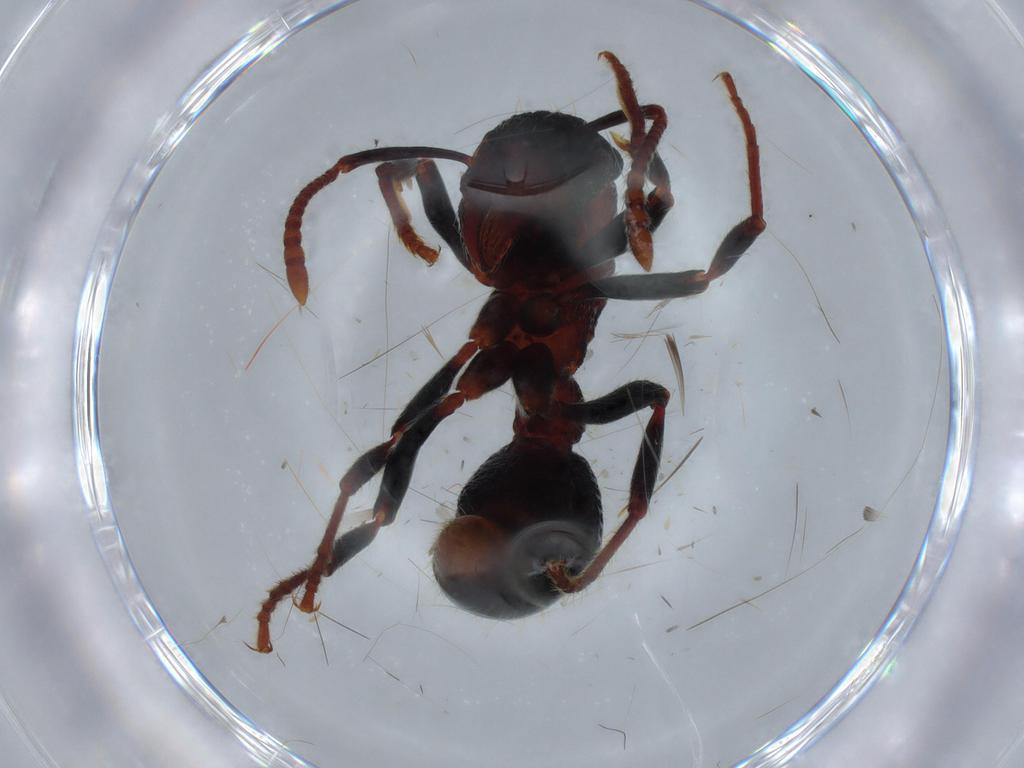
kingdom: Animalia
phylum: Arthropoda
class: Insecta
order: Hymenoptera
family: Formicidae
